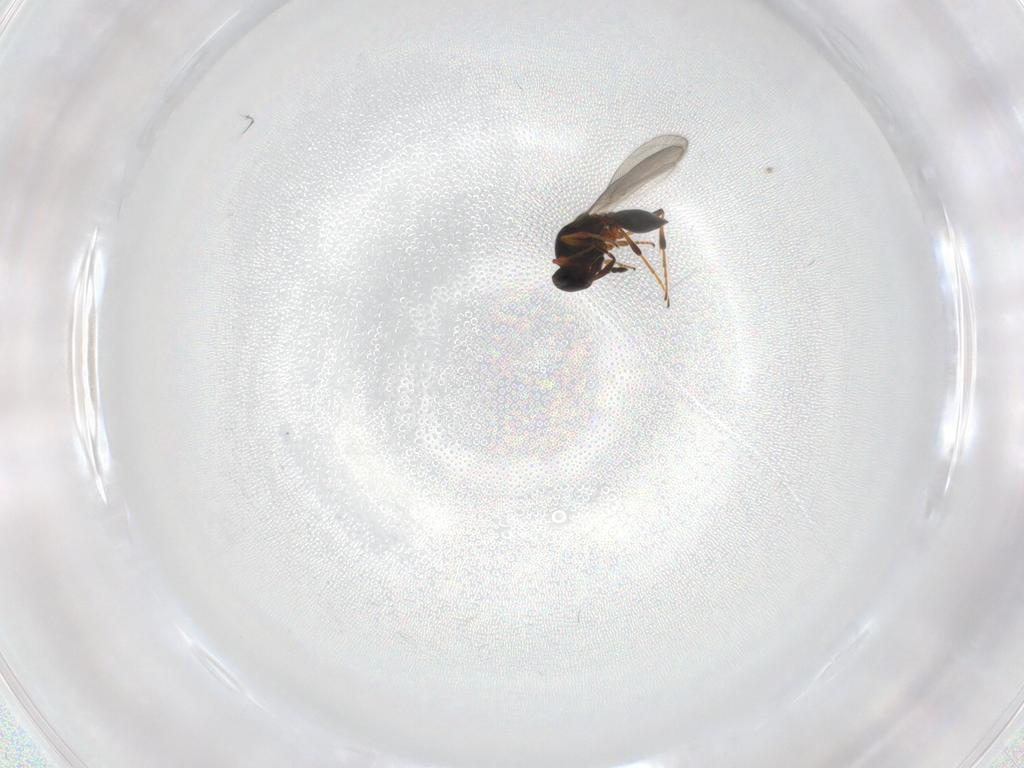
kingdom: Animalia
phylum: Arthropoda
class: Insecta
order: Hymenoptera
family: Platygastridae
